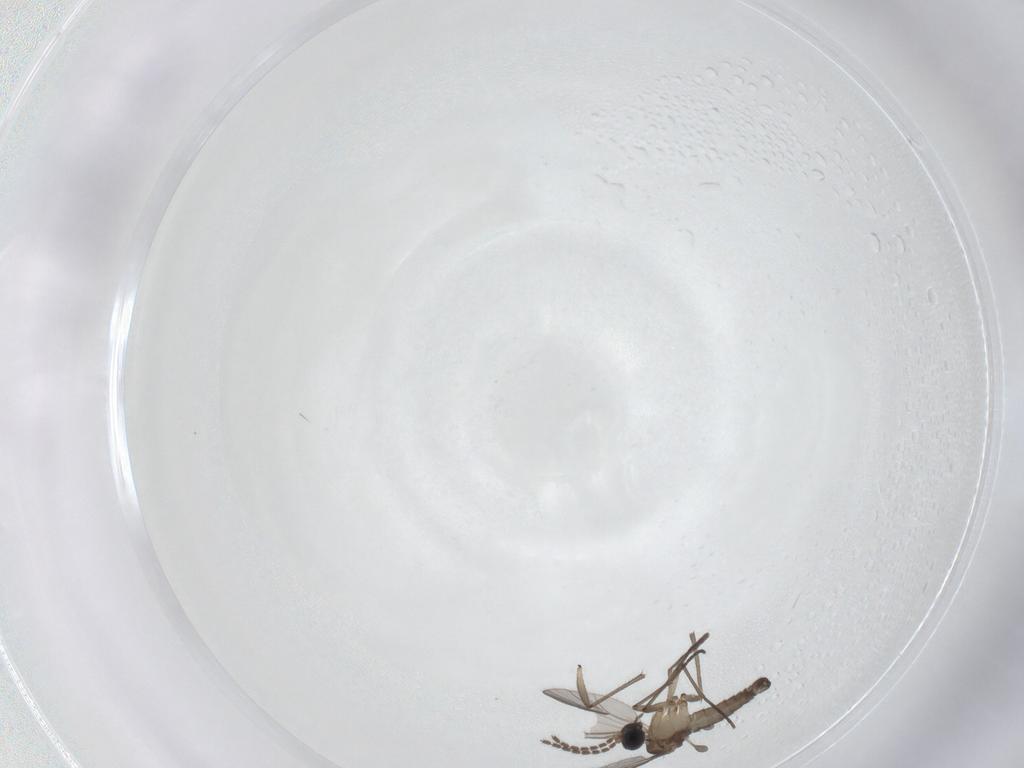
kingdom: Animalia
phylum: Arthropoda
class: Insecta
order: Diptera
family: Sciaridae
